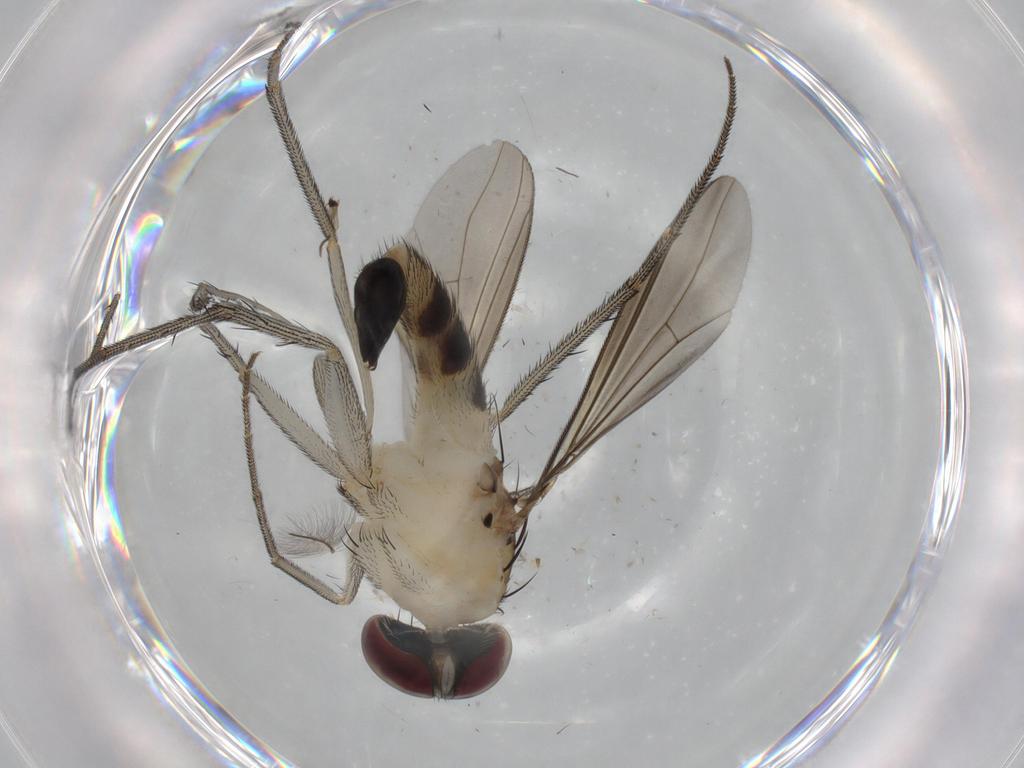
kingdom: Animalia
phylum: Arthropoda
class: Insecta
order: Diptera
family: Dolichopodidae
